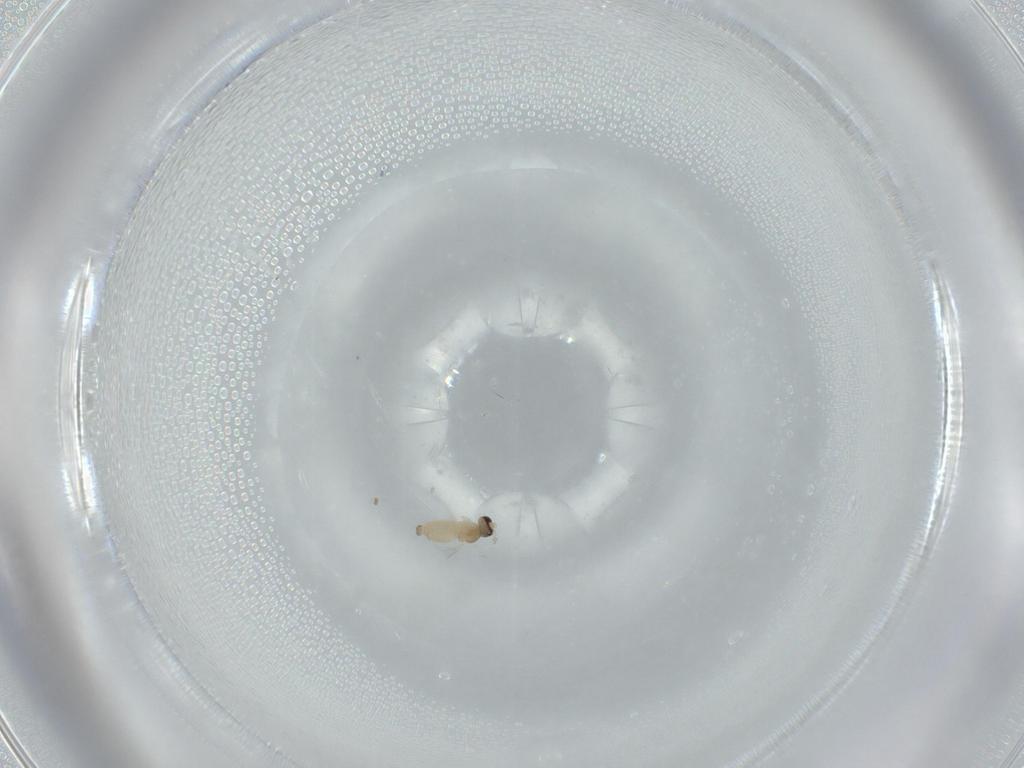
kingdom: Animalia
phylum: Arthropoda
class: Insecta
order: Diptera
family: Cecidomyiidae
